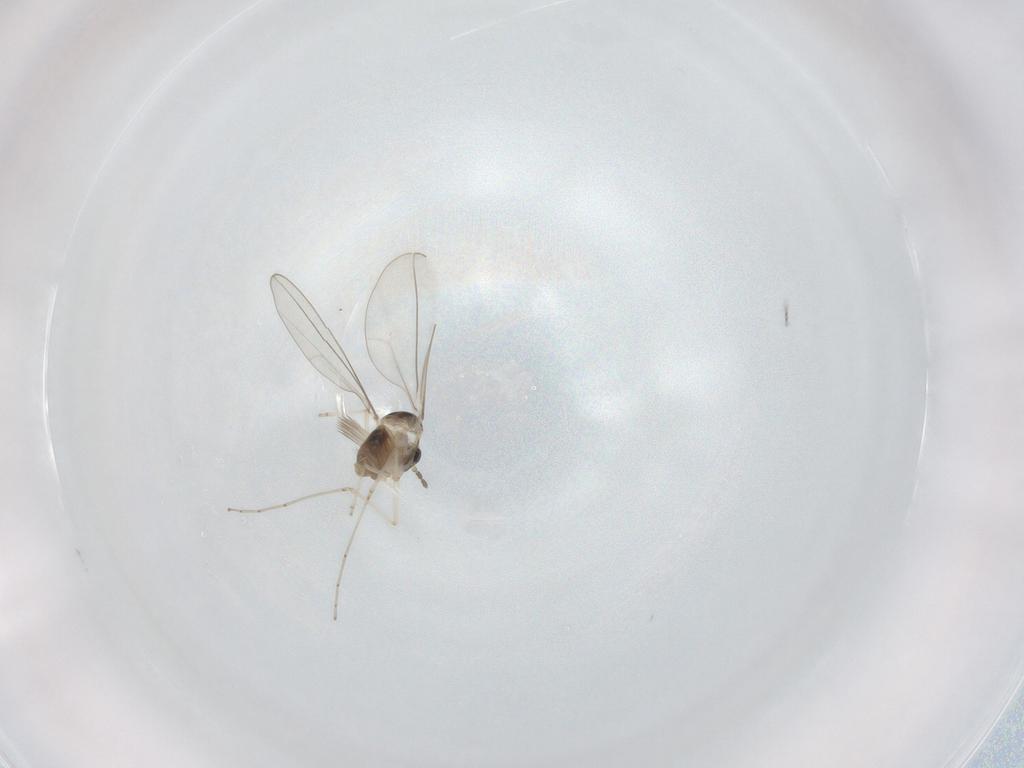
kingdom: Animalia
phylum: Arthropoda
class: Insecta
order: Diptera
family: Cecidomyiidae
